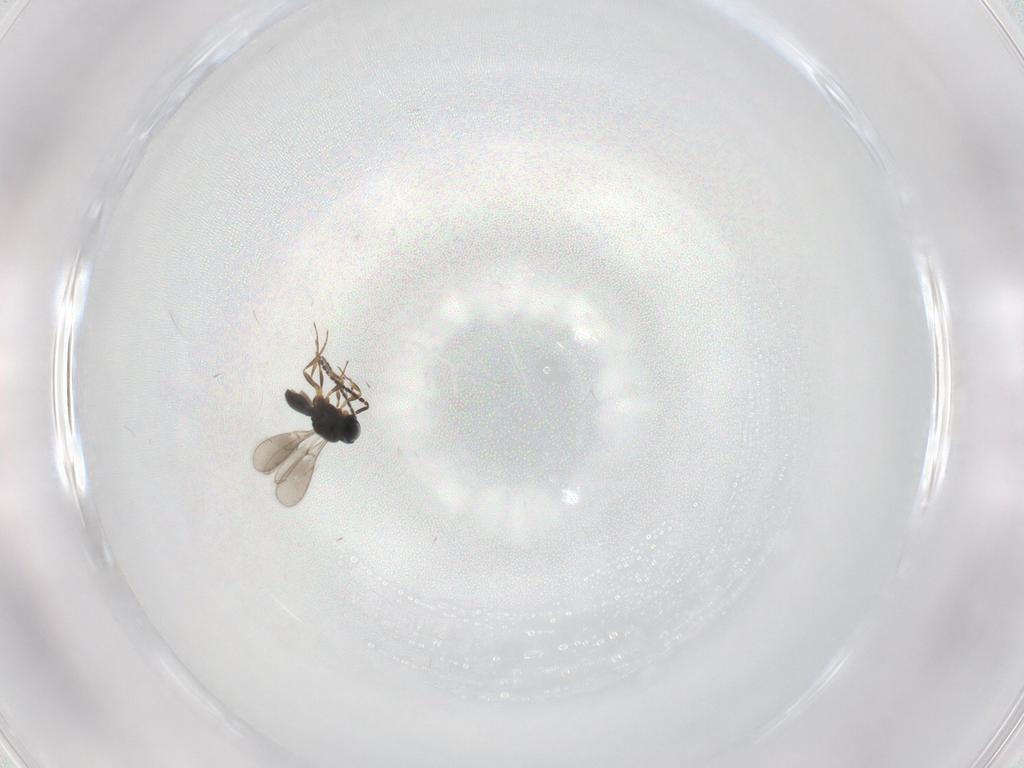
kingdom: Animalia
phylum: Arthropoda
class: Insecta
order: Hymenoptera
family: Scelionidae
